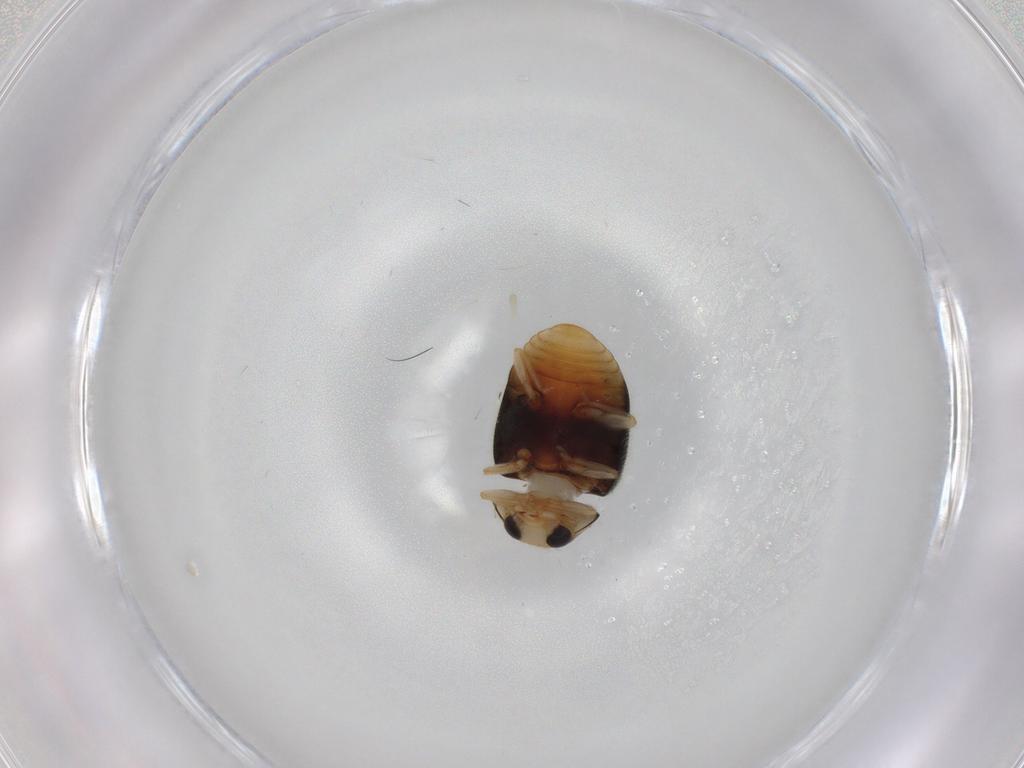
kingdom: Animalia
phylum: Arthropoda
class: Insecta
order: Coleoptera
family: Coccinellidae
